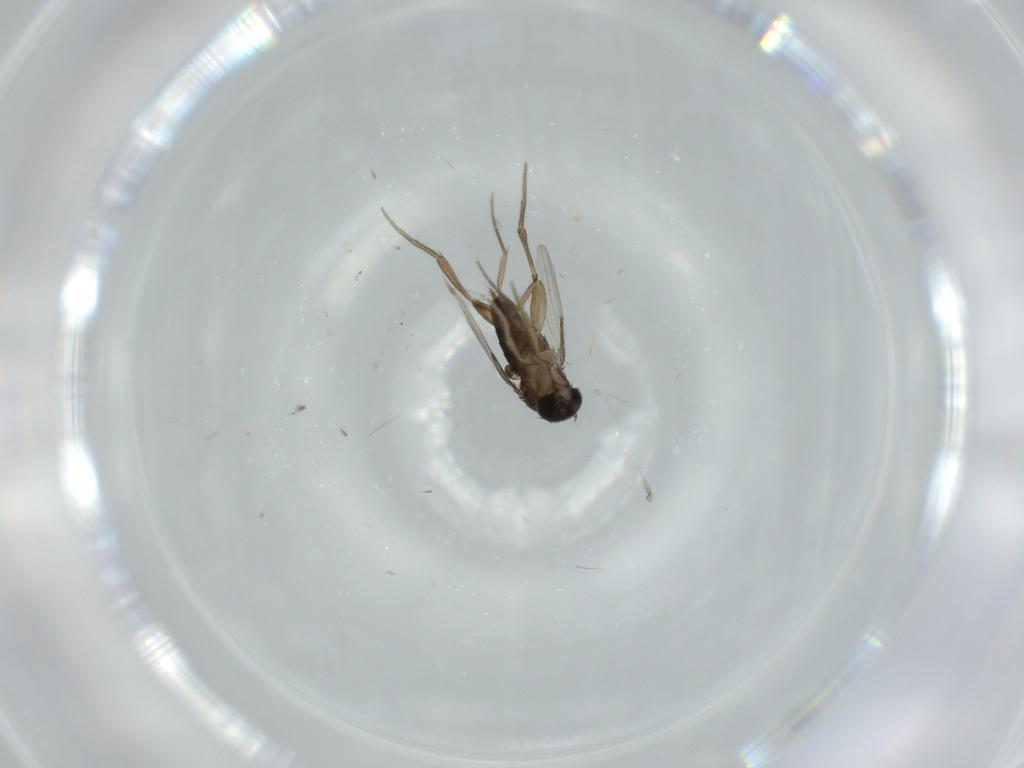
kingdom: Animalia
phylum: Arthropoda
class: Insecta
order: Diptera
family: Phoridae
